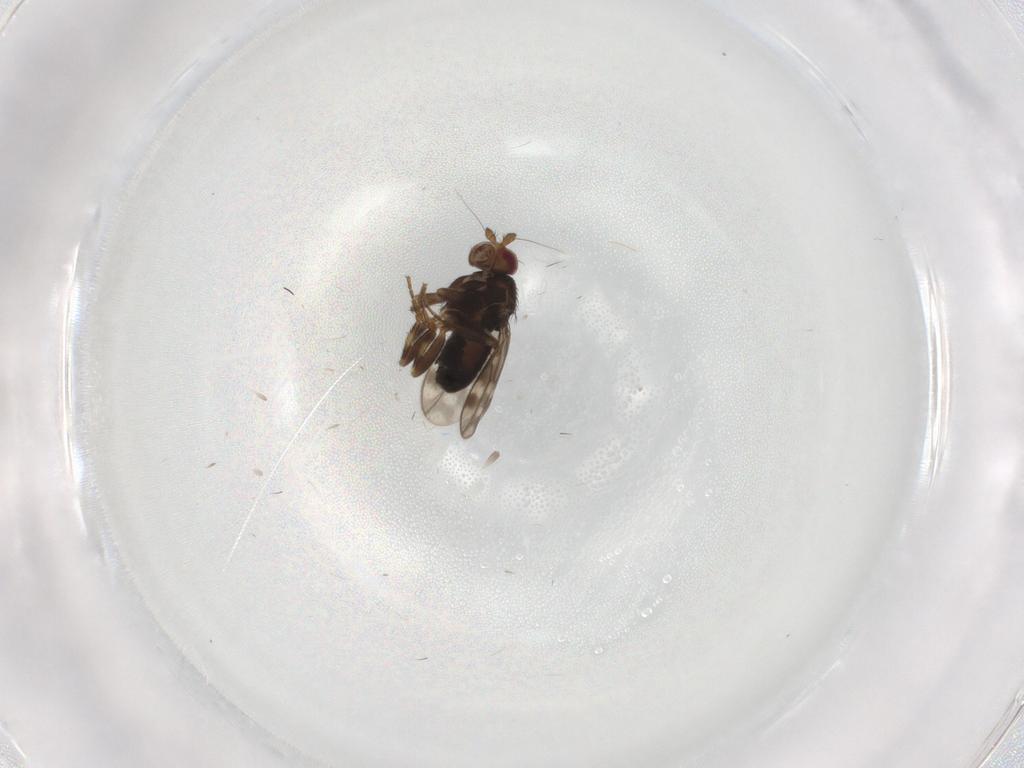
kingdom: Animalia
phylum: Arthropoda
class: Insecta
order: Diptera
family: Sphaeroceridae
